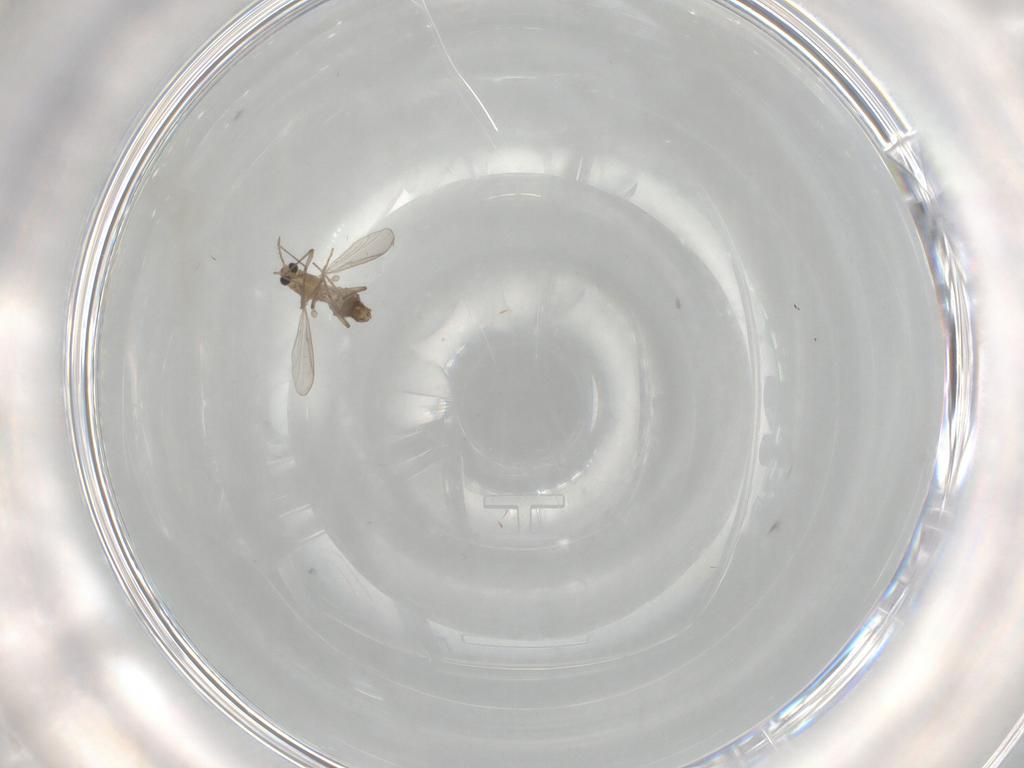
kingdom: Animalia
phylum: Arthropoda
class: Insecta
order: Diptera
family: Chironomidae
